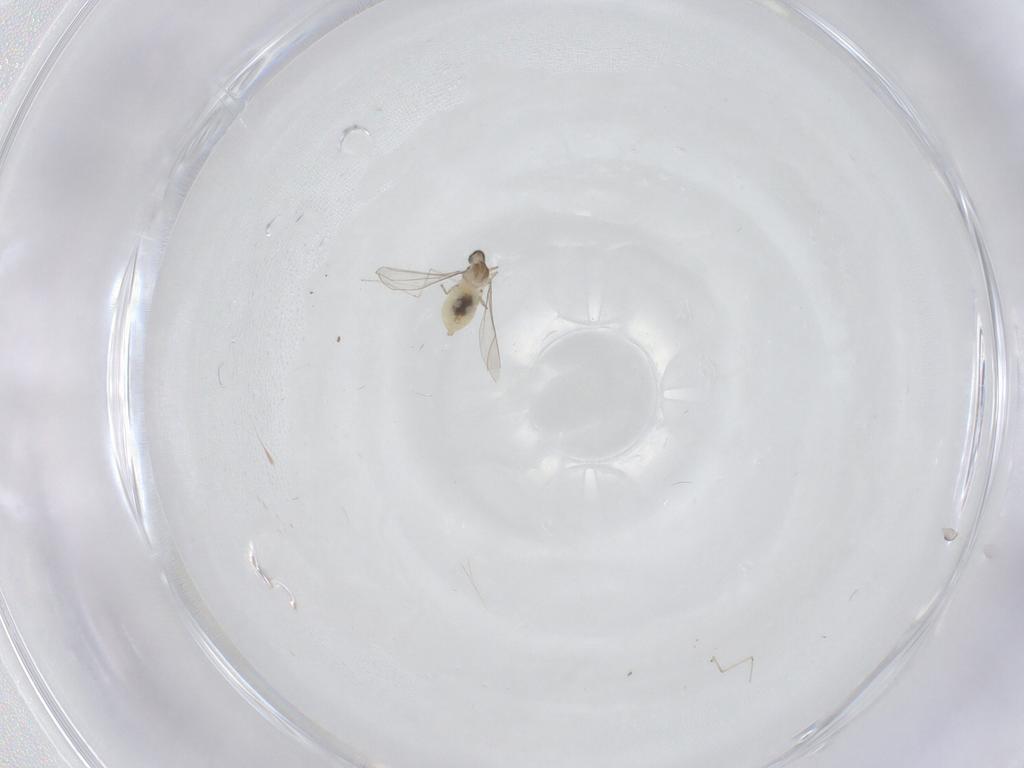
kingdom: Animalia
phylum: Arthropoda
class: Insecta
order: Diptera
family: Cecidomyiidae
